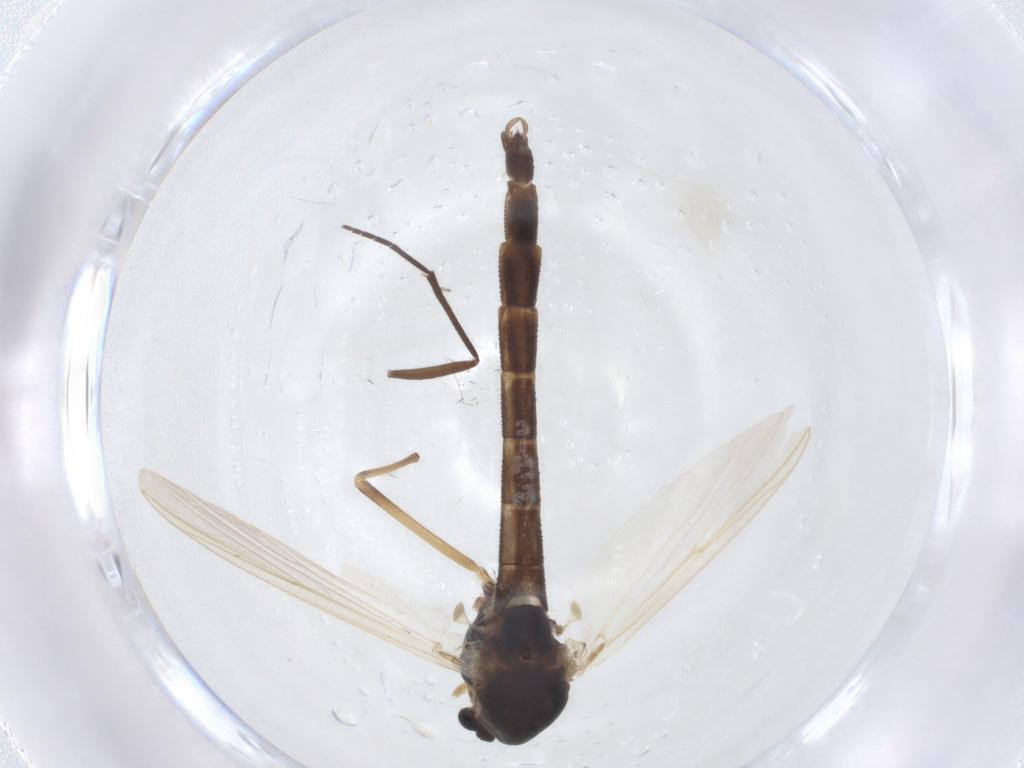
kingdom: Animalia
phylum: Arthropoda
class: Insecta
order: Diptera
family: Chironomidae
